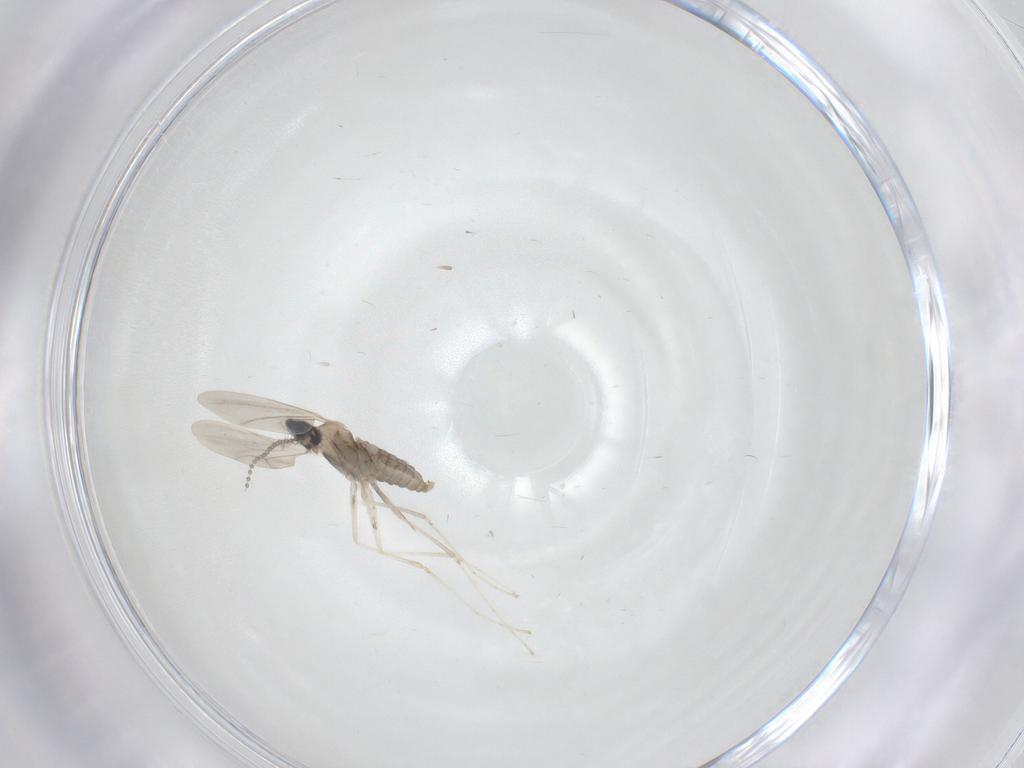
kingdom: Animalia
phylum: Arthropoda
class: Insecta
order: Diptera
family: Cecidomyiidae
